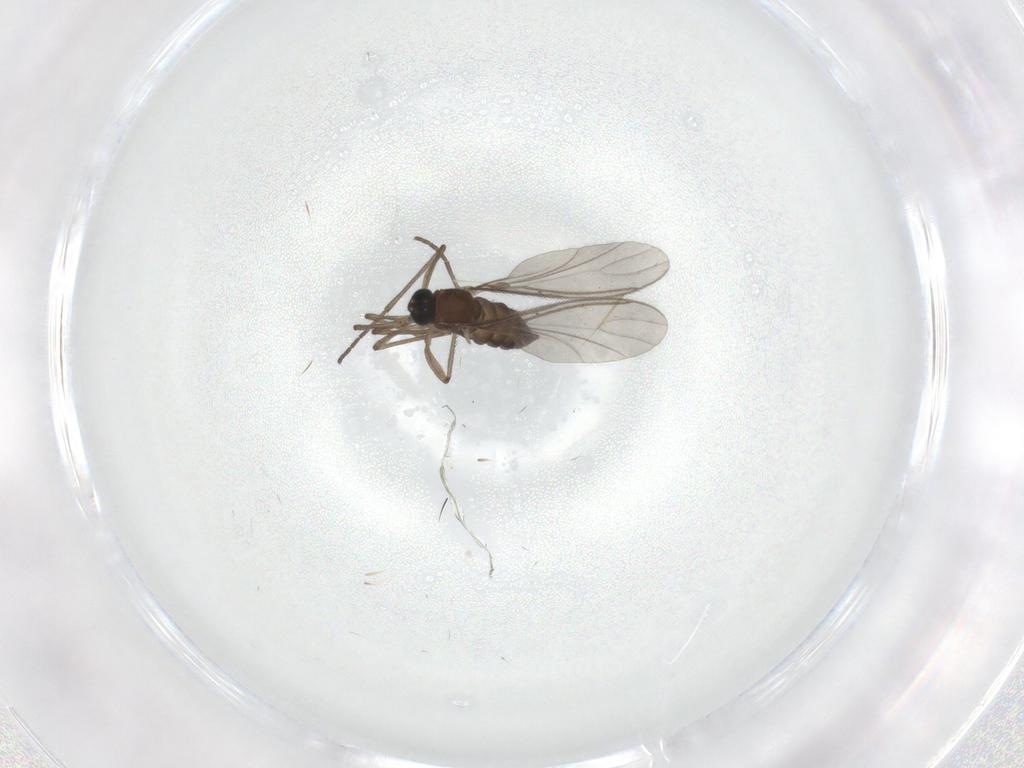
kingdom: Animalia
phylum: Arthropoda
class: Insecta
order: Diptera
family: Sciaridae
